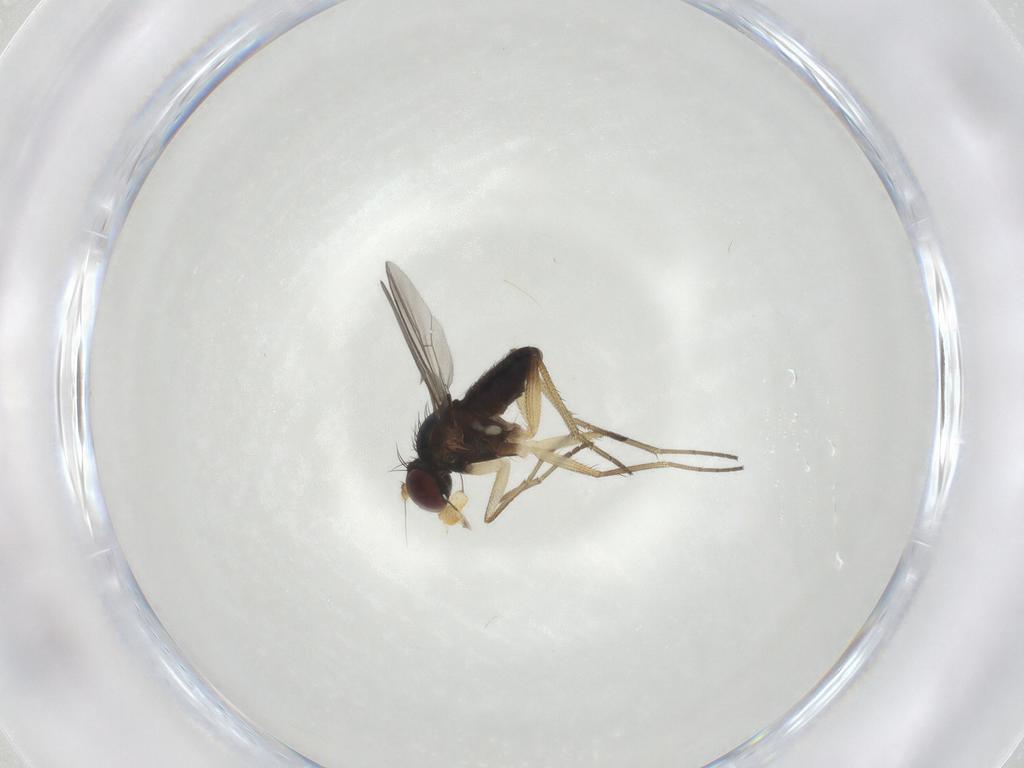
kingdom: Animalia
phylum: Arthropoda
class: Insecta
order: Diptera
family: Dolichopodidae
